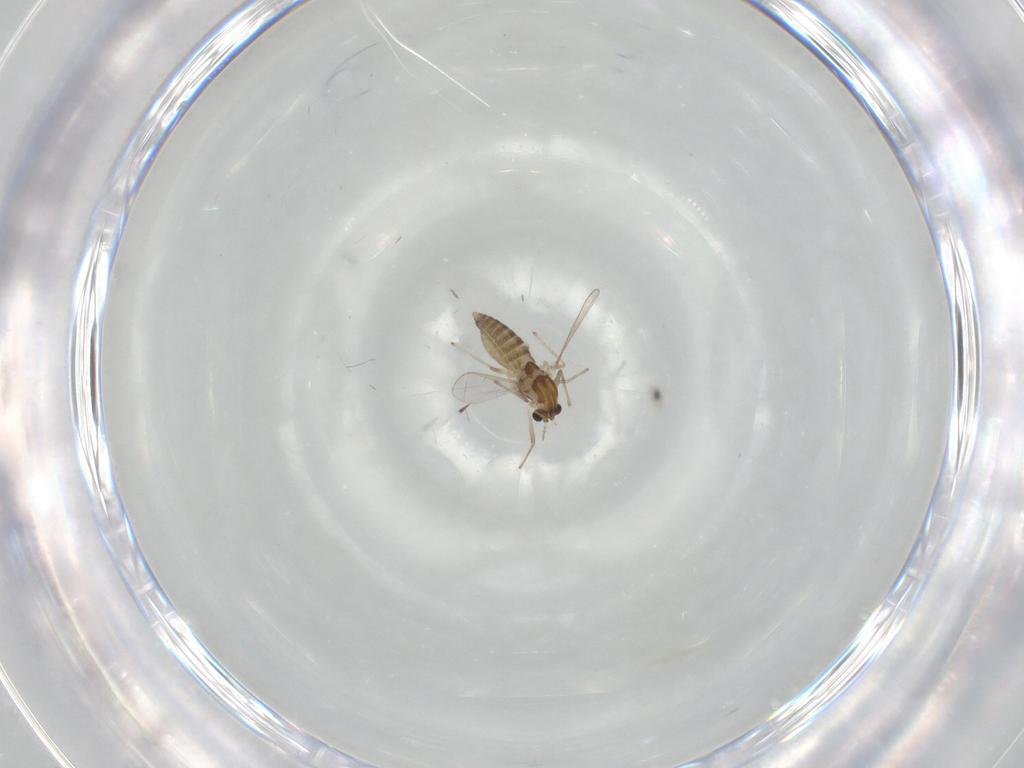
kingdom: Animalia
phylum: Arthropoda
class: Insecta
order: Diptera
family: Chironomidae
